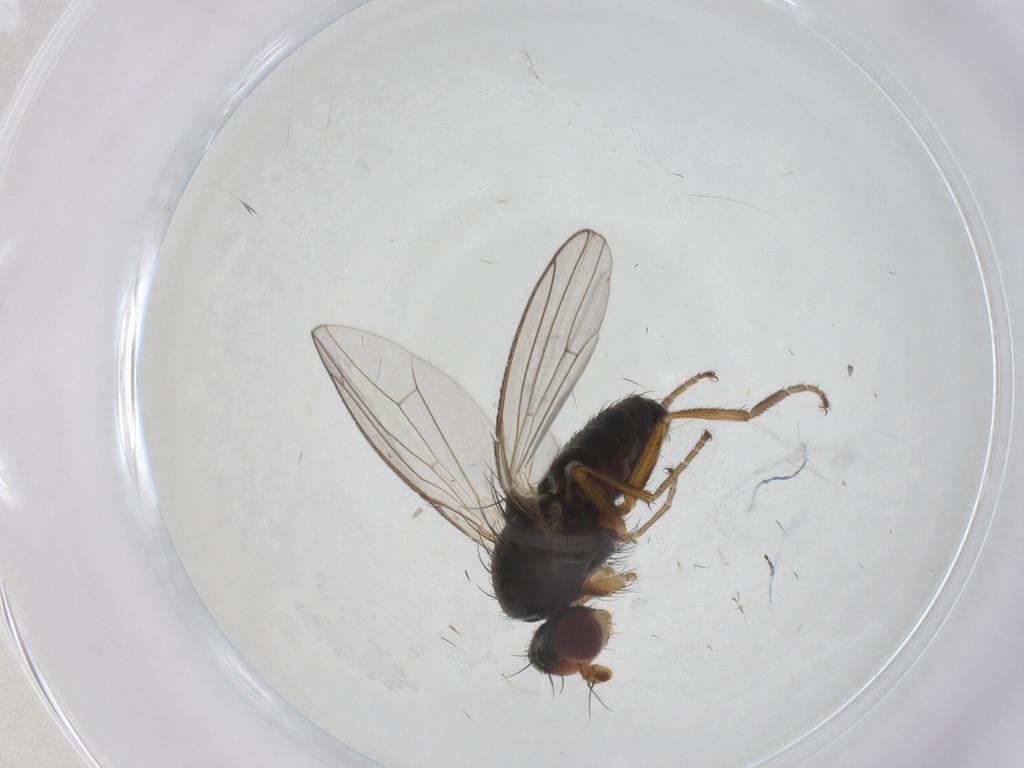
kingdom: Animalia
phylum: Arthropoda
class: Insecta
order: Diptera
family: Heleomyzidae
